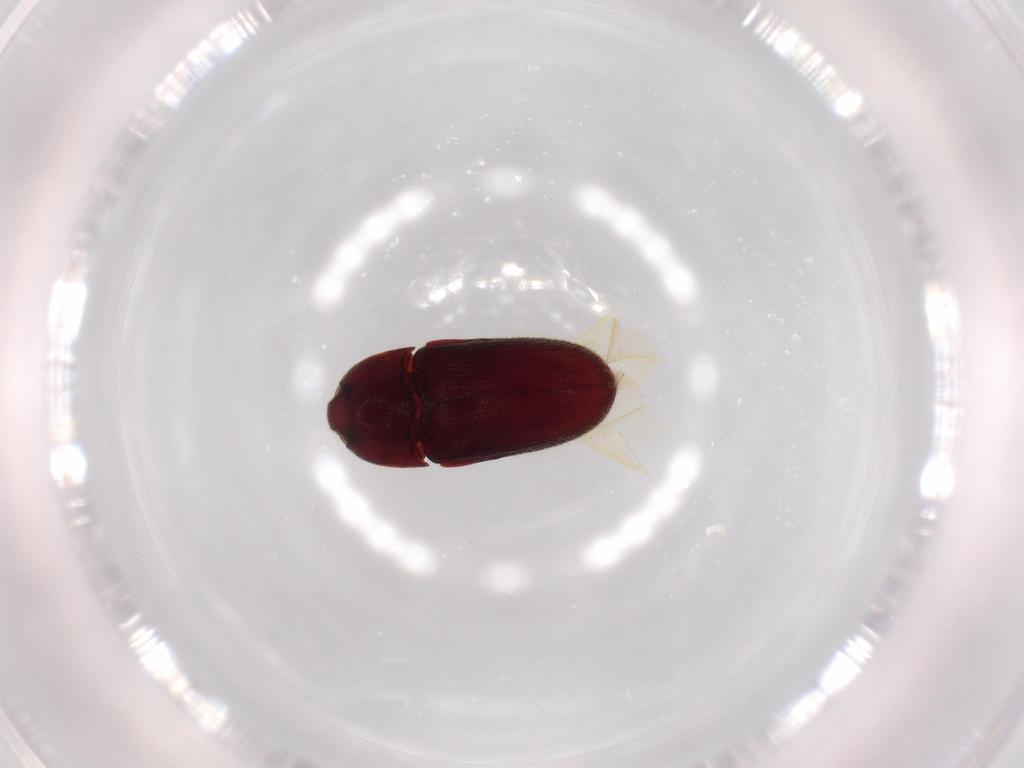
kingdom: Animalia
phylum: Arthropoda
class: Insecta
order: Coleoptera
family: Throscidae
